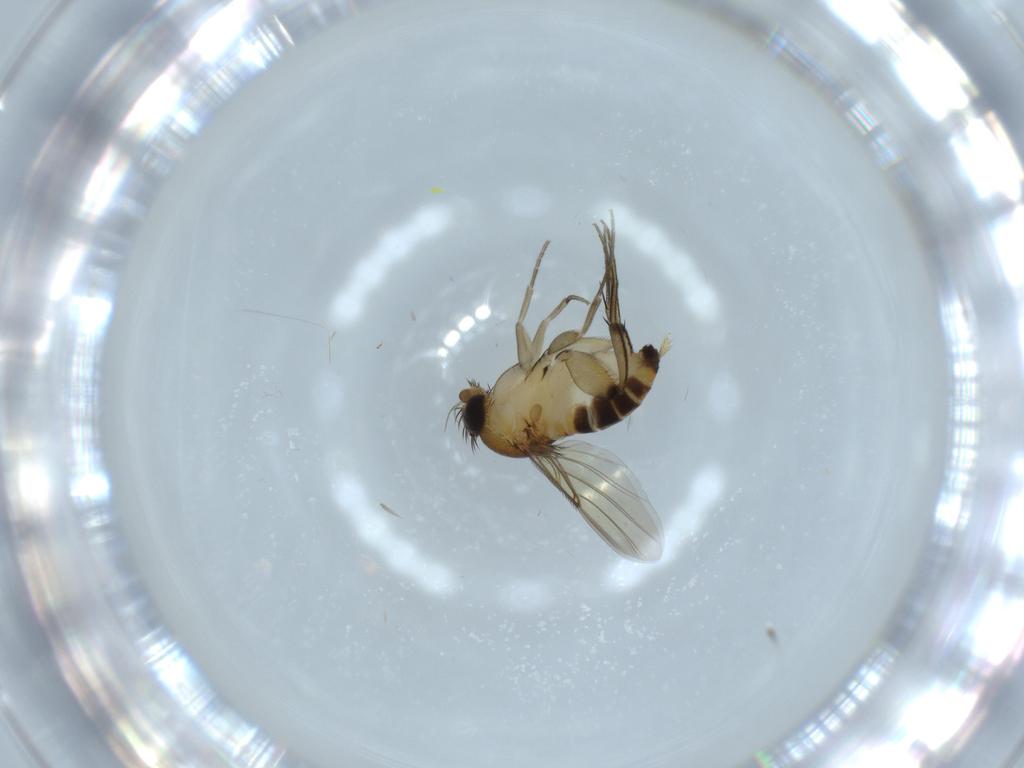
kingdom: Animalia
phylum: Arthropoda
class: Insecta
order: Diptera
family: Phoridae
